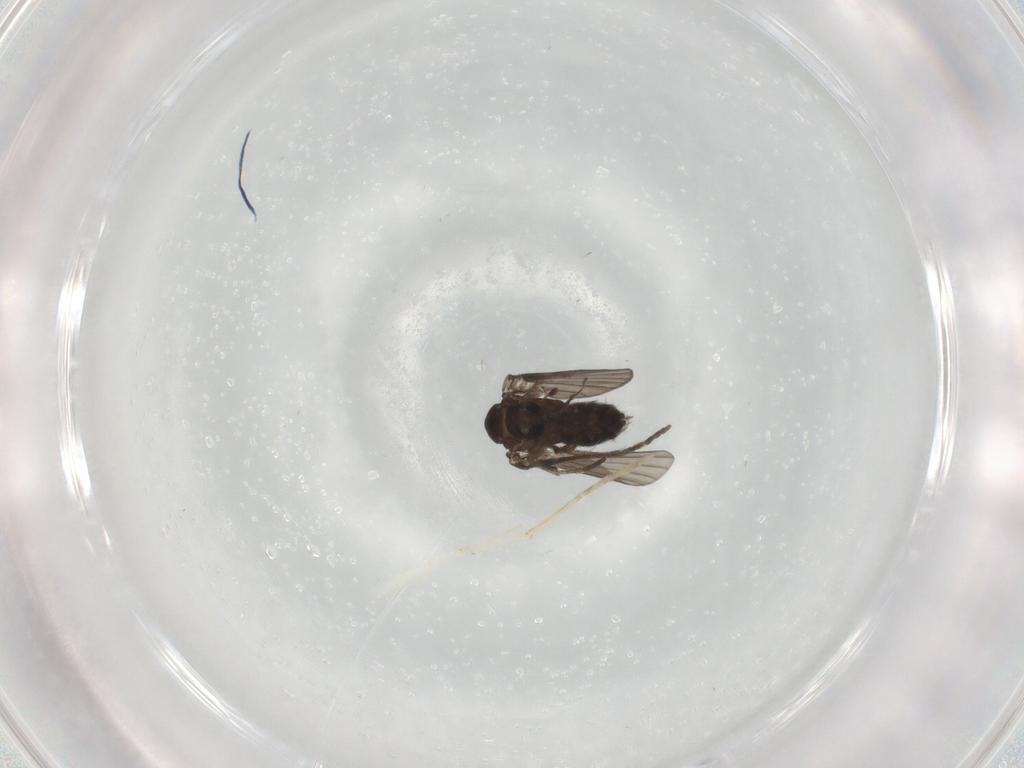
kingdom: Animalia
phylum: Arthropoda
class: Insecta
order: Diptera
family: Psychodidae
